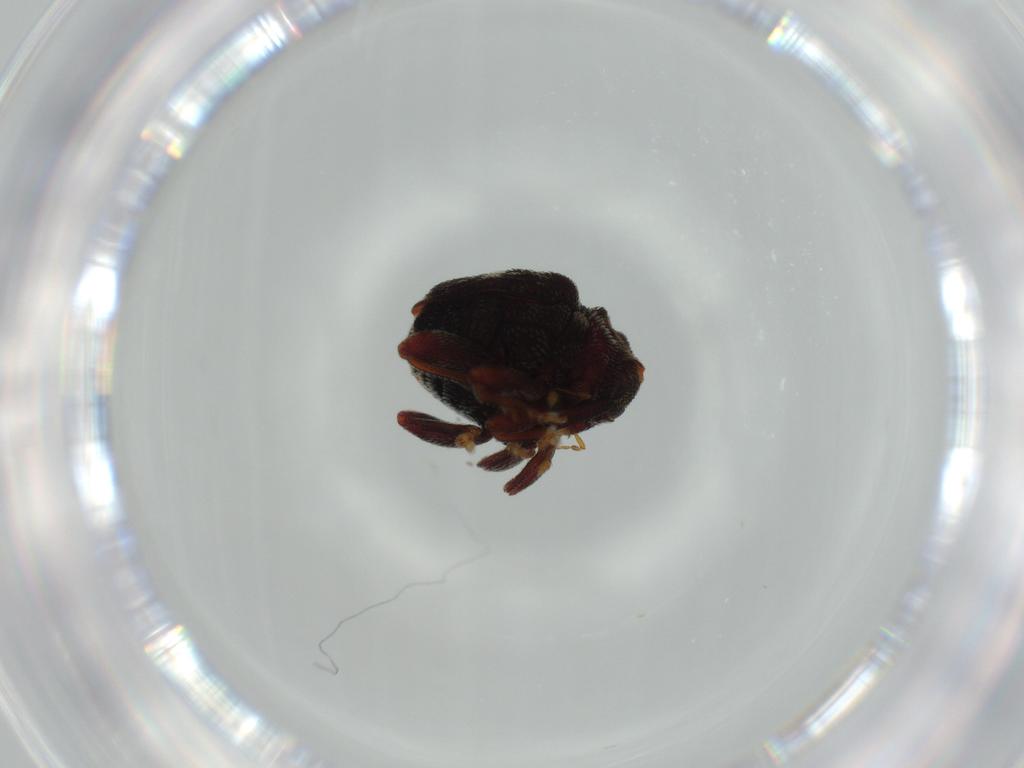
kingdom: Animalia
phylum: Arthropoda
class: Insecta
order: Coleoptera
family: Curculionidae
